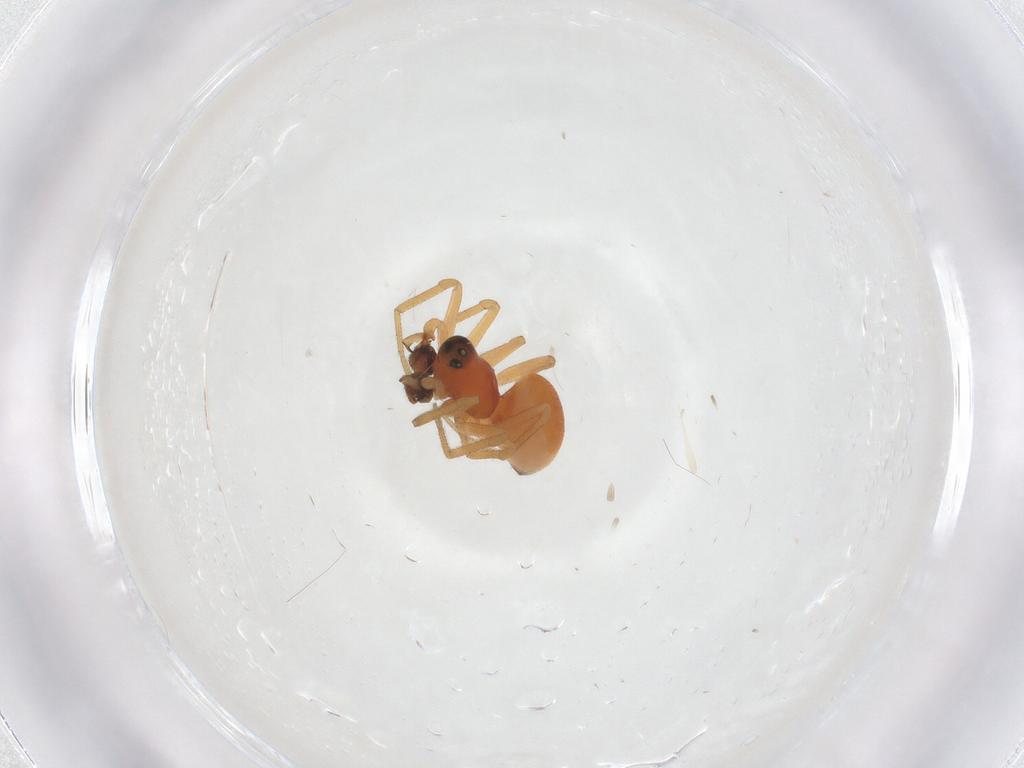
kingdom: Animalia
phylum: Arthropoda
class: Arachnida
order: Araneae
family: Linyphiidae
